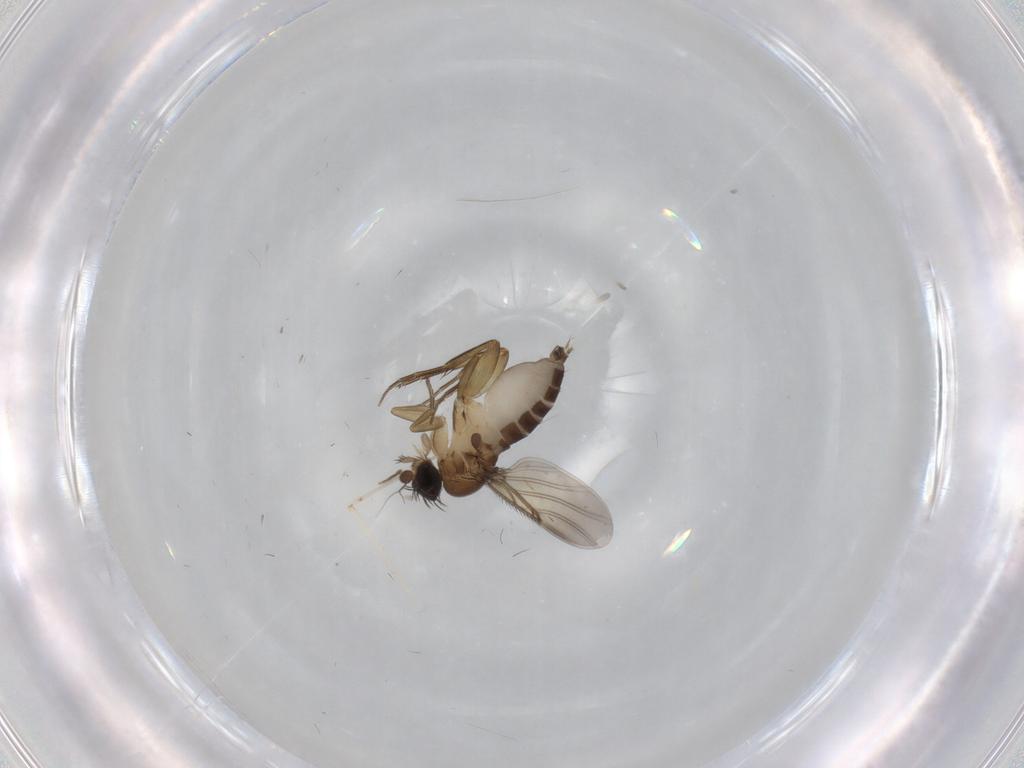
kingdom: Animalia
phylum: Arthropoda
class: Insecta
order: Diptera
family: Phoridae
